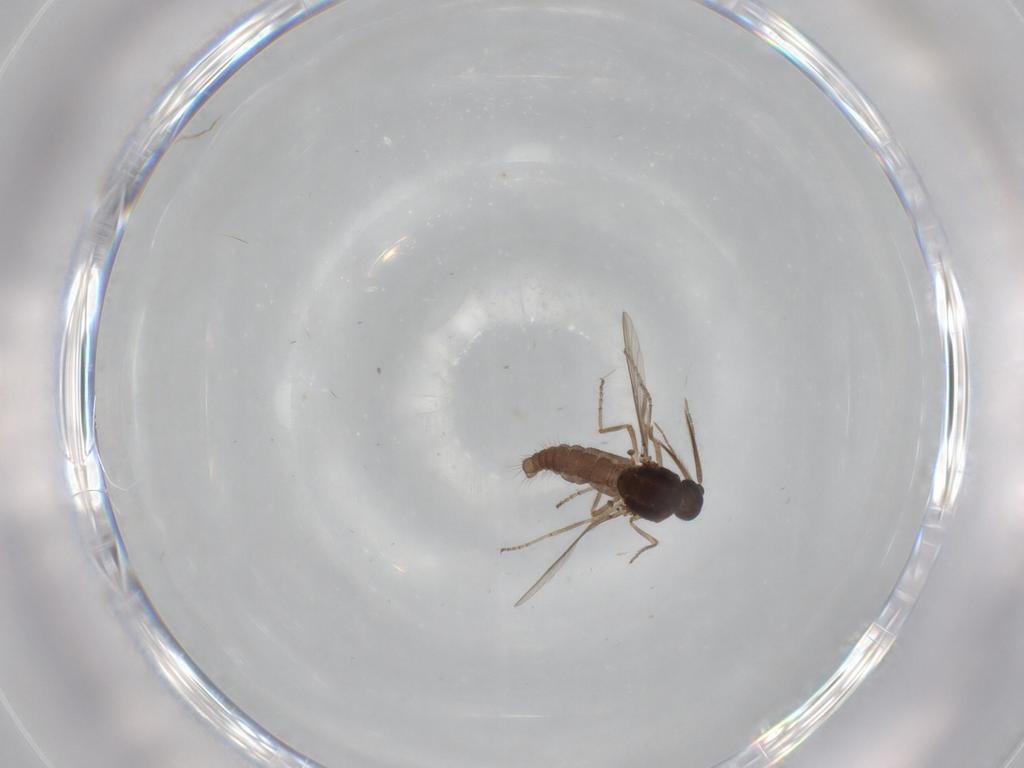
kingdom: Animalia
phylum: Arthropoda
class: Insecta
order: Diptera
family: Ceratopogonidae
